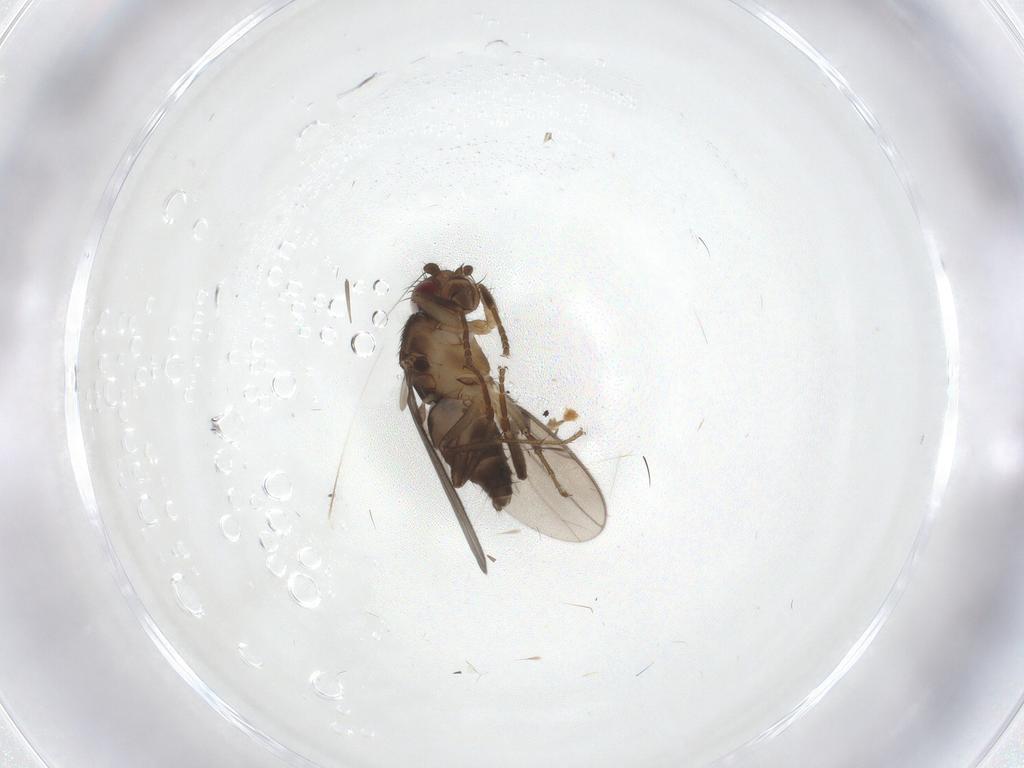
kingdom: Animalia
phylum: Arthropoda
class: Insecta
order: Diptera
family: Sphaeroceridae
